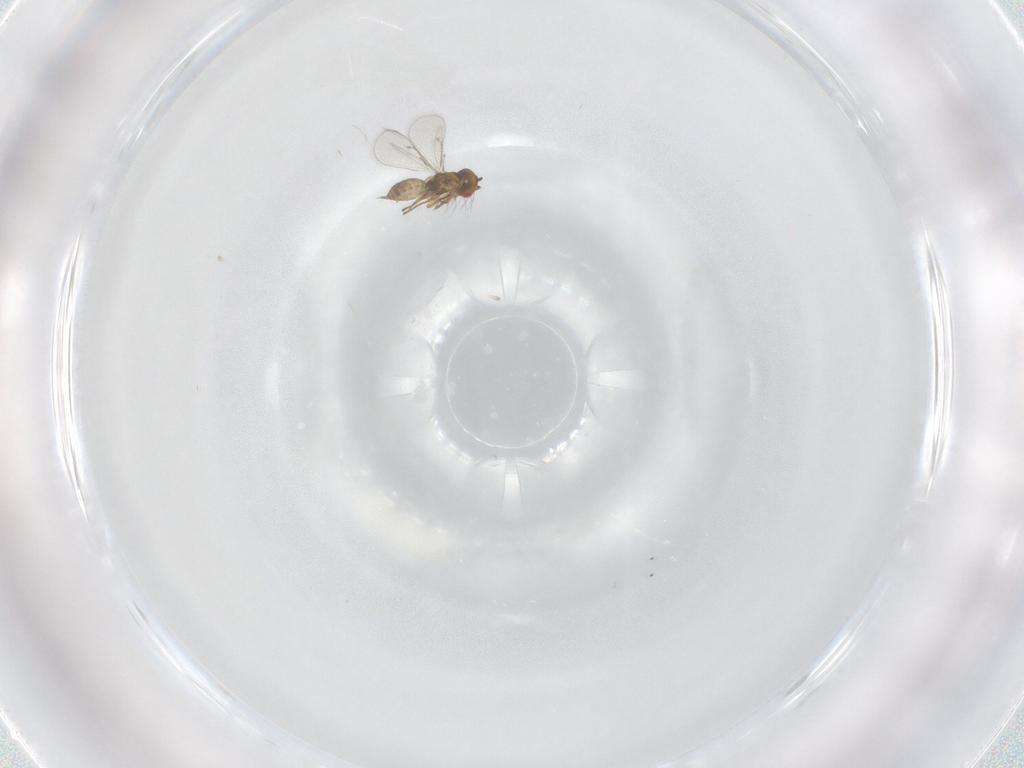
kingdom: Animalia
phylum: Arthropoda
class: Insecta
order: Hymenoptera
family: Eulophidae
